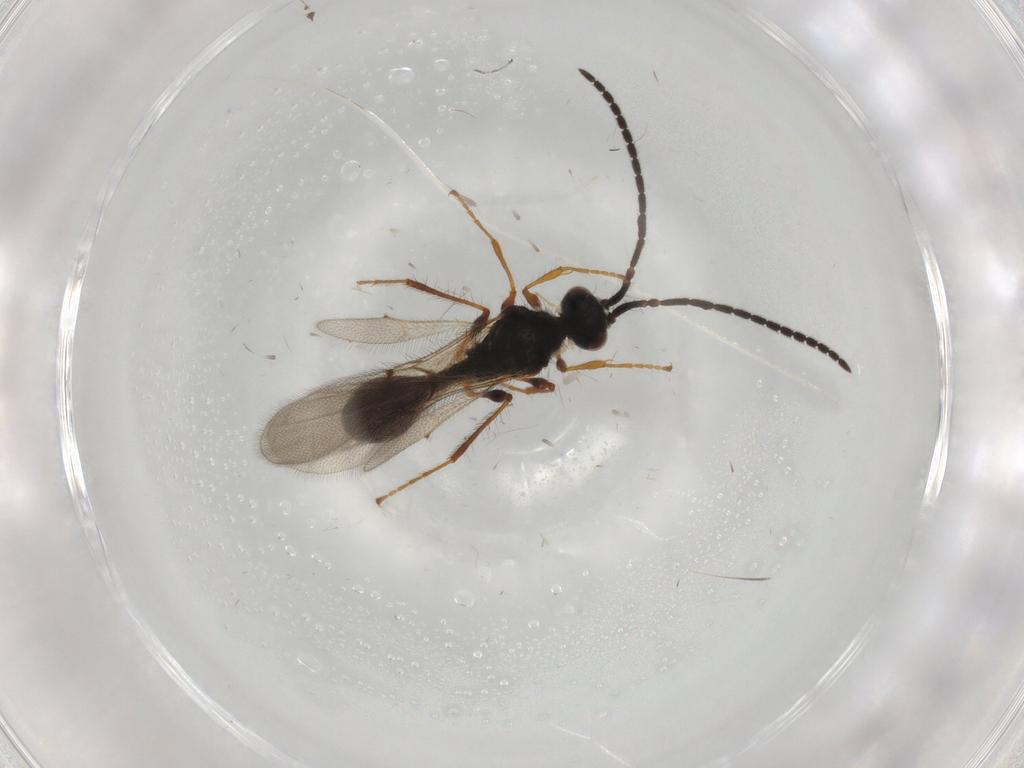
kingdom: Animalia
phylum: Arthropoda
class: Insecta
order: Hymenoptera
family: Diapriidae
